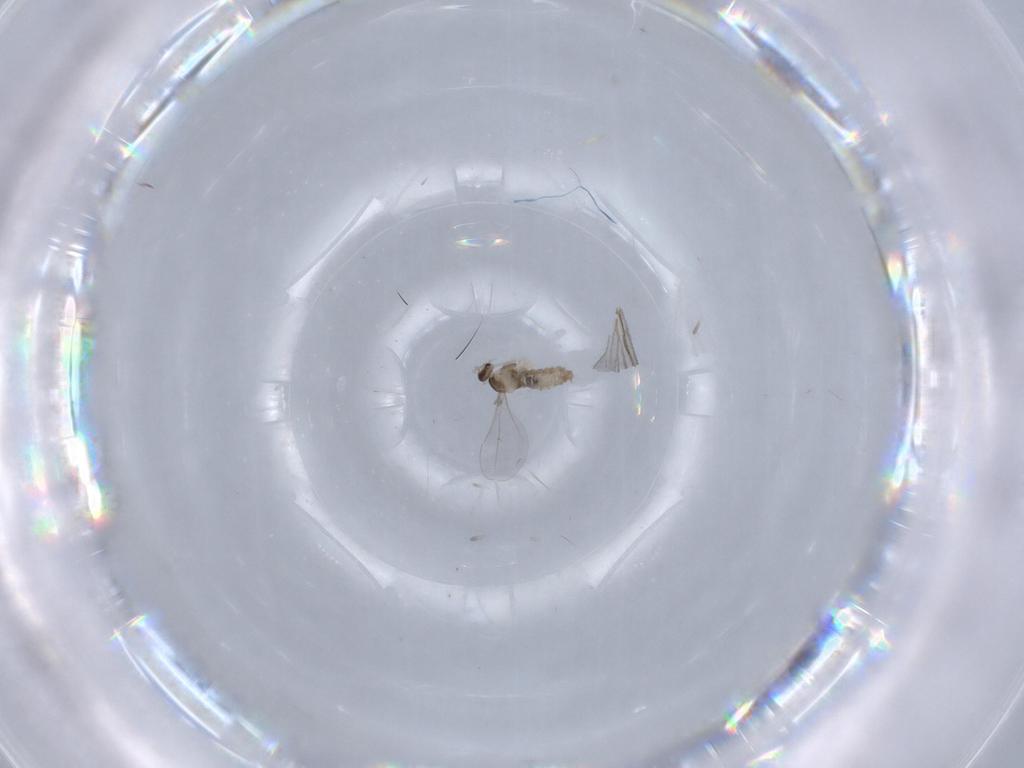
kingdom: Animalia
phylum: Arthropoda
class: Insecta
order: Diptera
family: Cecidomyiidae
